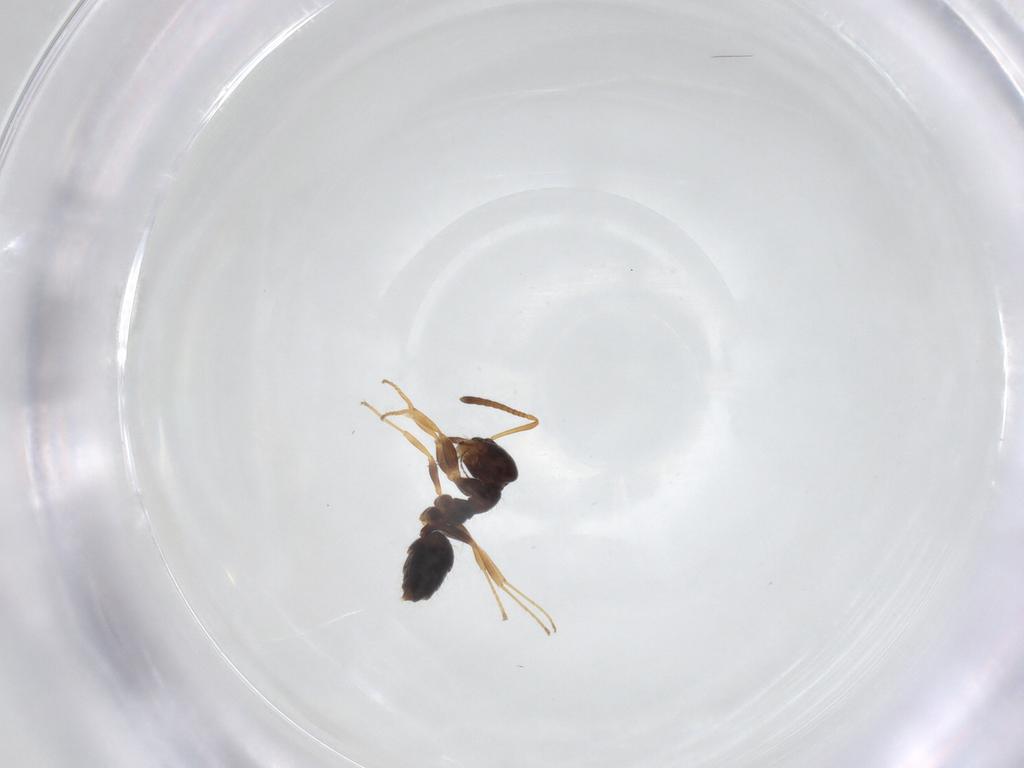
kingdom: Animalia
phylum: Arthropoda
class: Insecta
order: Hymenoptera
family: Formicidae
